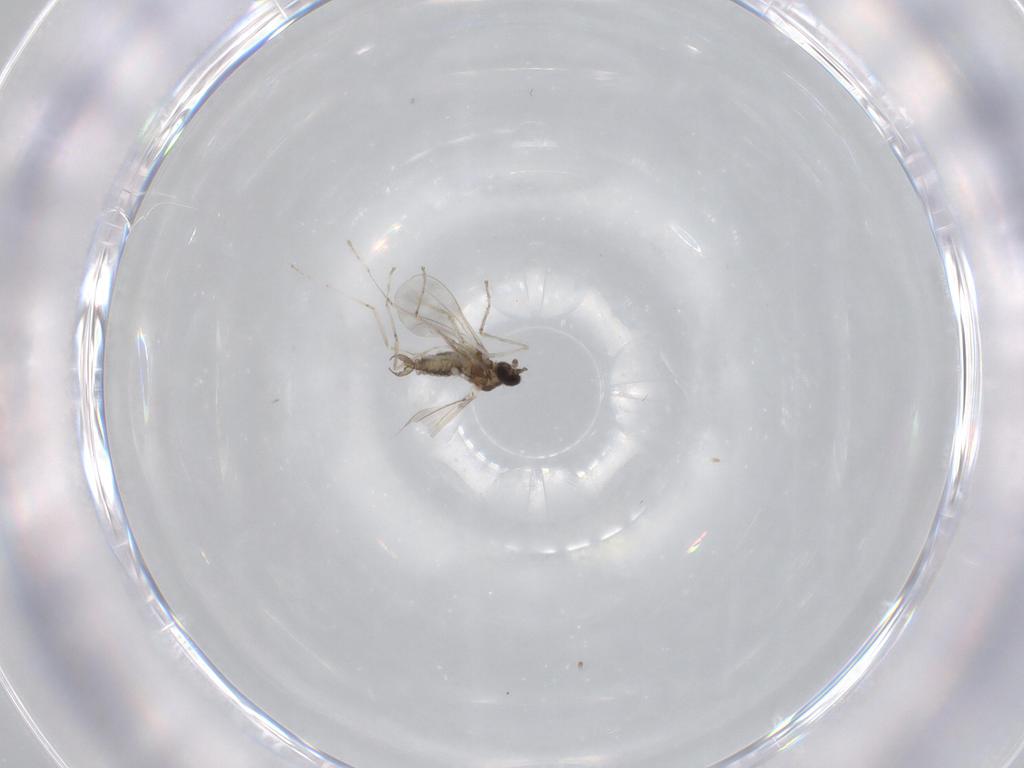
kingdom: Animalia
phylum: Arthropoda
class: Insecta
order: Diptera
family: Cecidomyiidae
